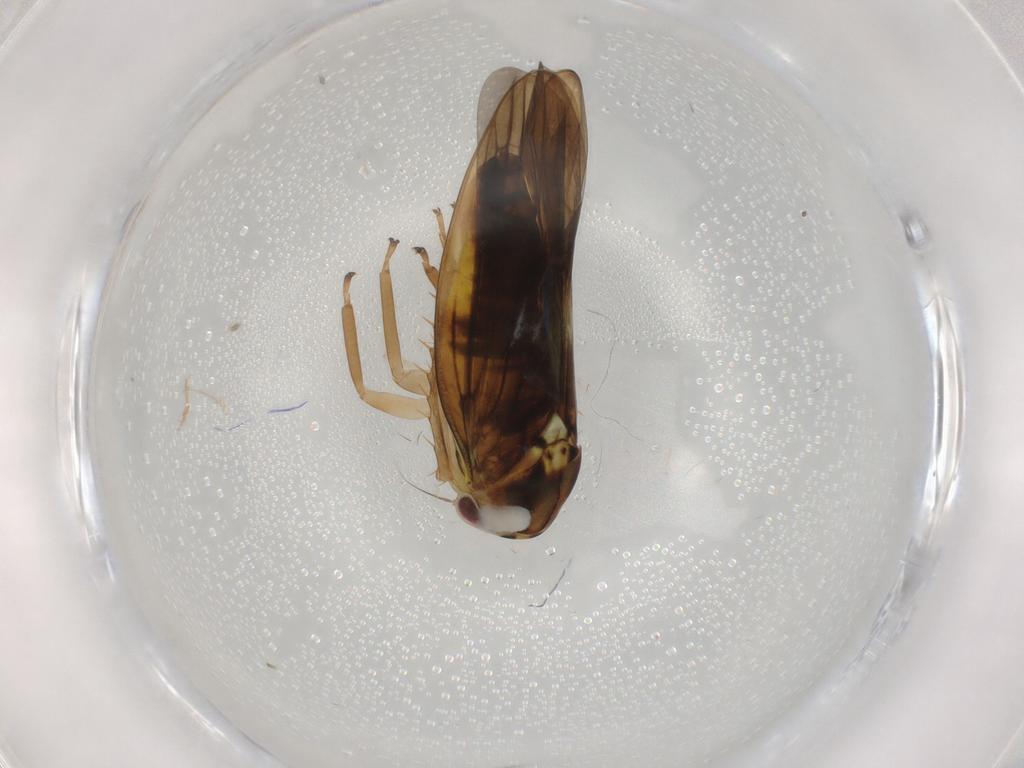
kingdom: Animalia
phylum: Arthropoda
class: Insecta
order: Hemiptera
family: Cicadellidae
